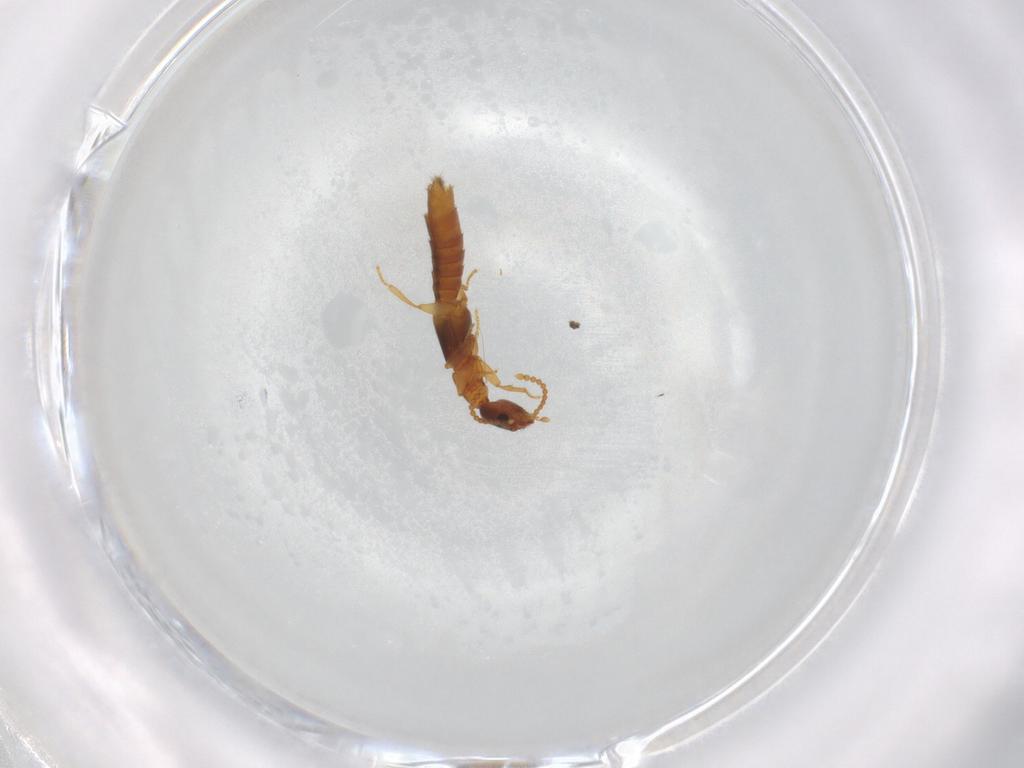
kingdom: Animalia
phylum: Arthropoda
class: Insecta
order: Coleoptera
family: Limnichidae
